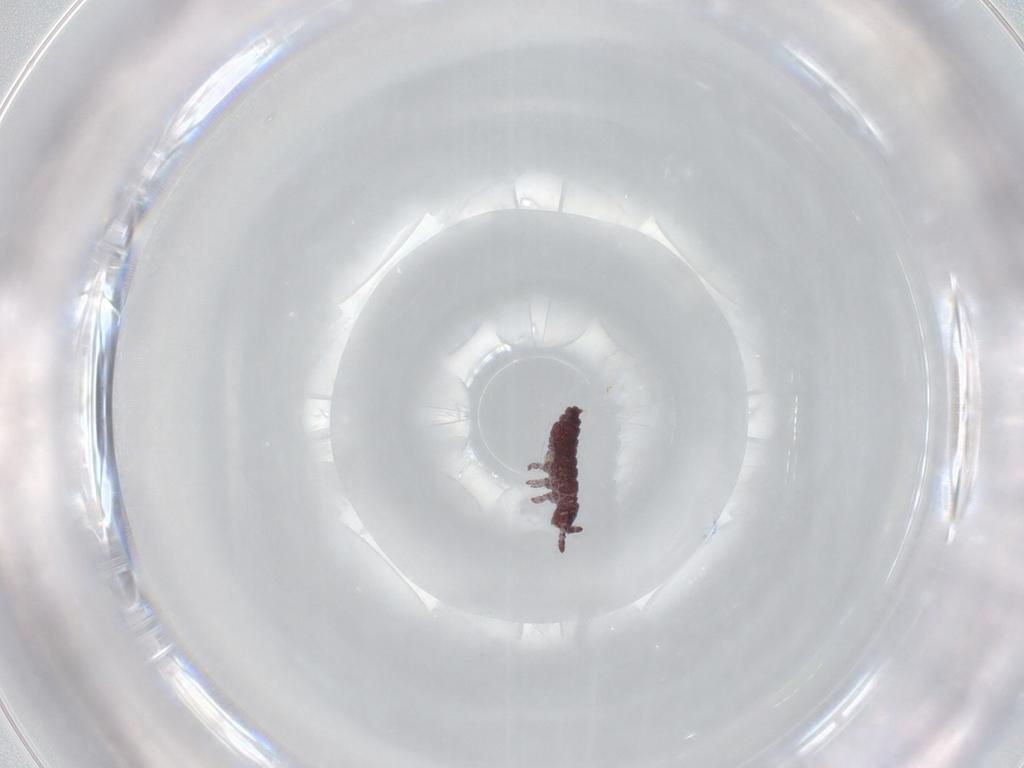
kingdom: Animalia
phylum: Arthropoda
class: Collembola
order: Poduromorpha
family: Hypogastruridae
